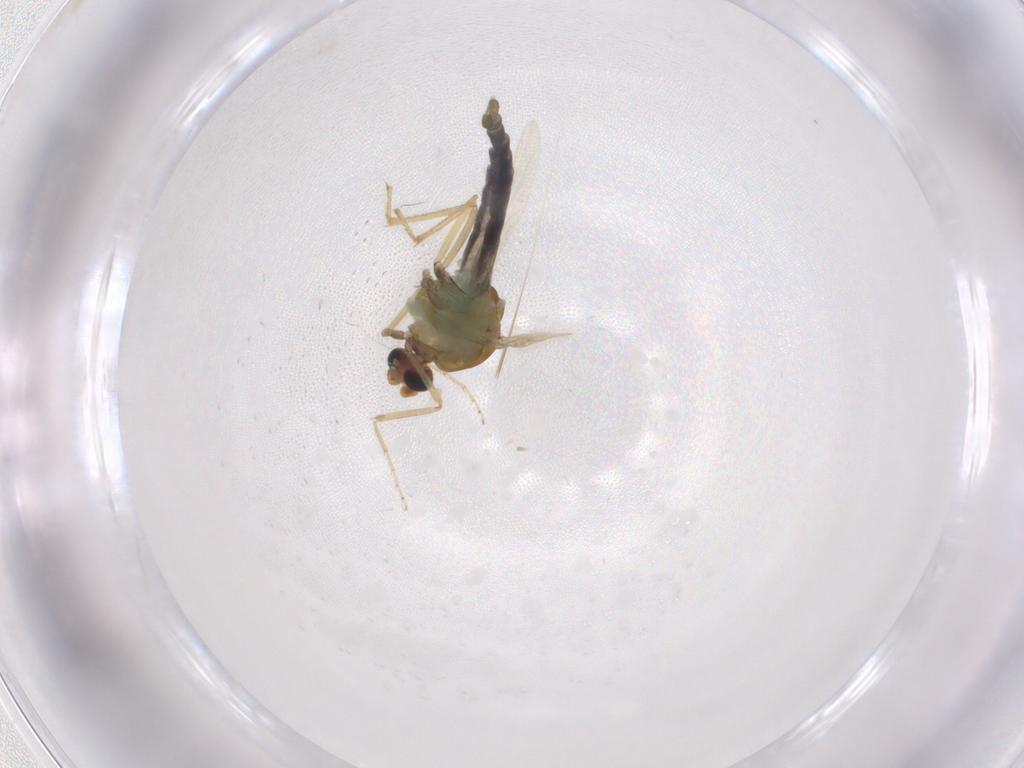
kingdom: Animalia
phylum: Arthropoda
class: Insecta
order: Diptera
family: Ceratopogonidae
